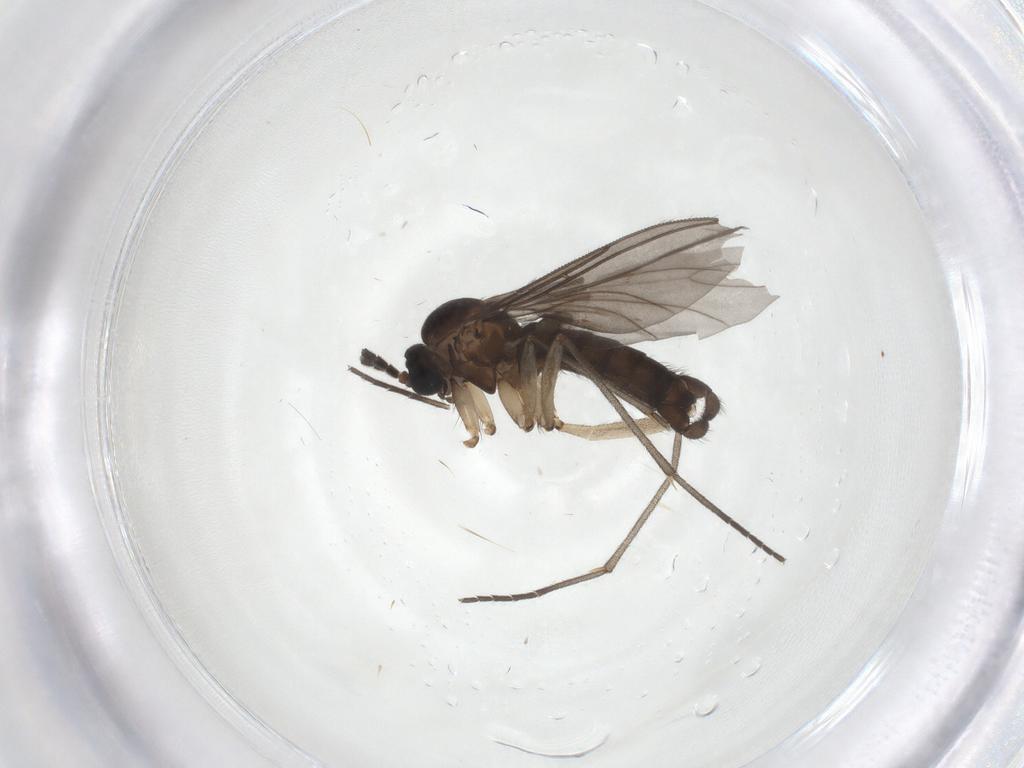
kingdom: Animalia
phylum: Arthropoda
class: Insecta
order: Diptera
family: Sciaridae
